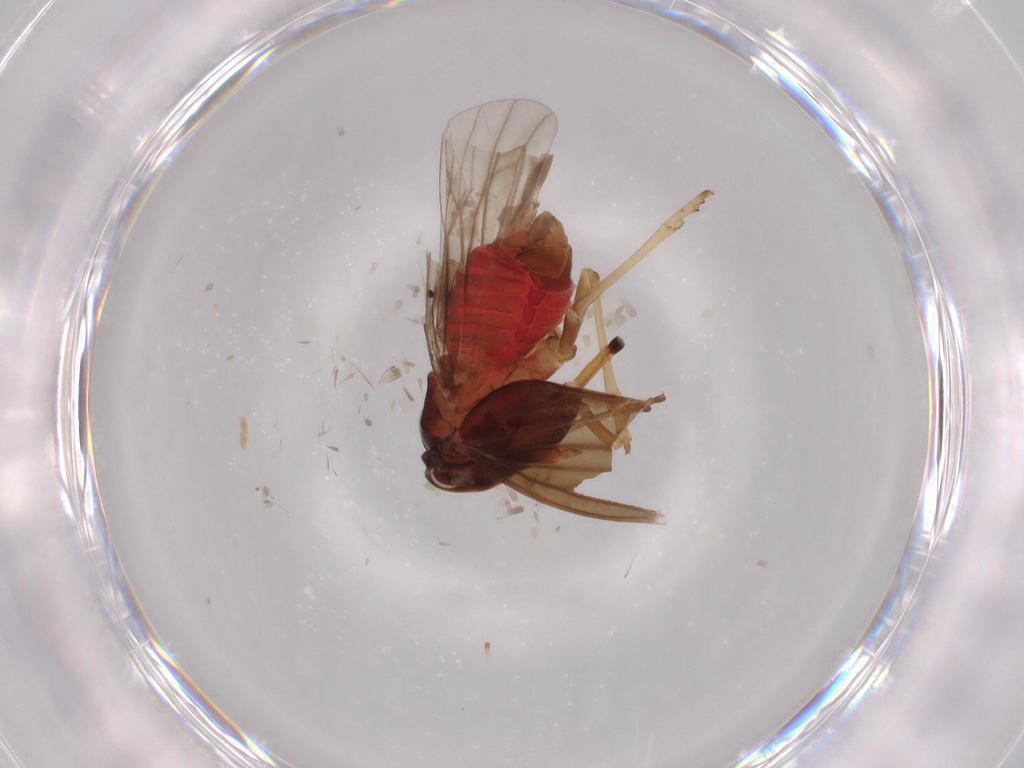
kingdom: Animalia
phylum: Arthropoda
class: Insecta
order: Hemiptera
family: Derbidae
